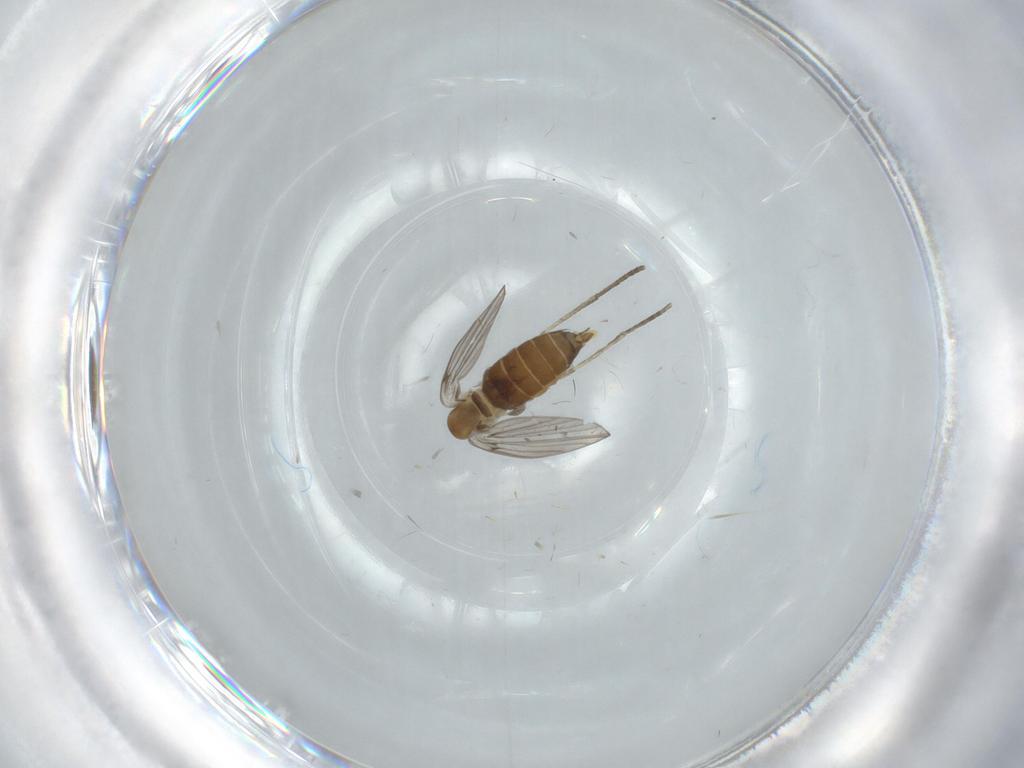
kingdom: Animalia
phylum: Arthropoda
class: Insecta
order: Diptera
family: Psychodidae
